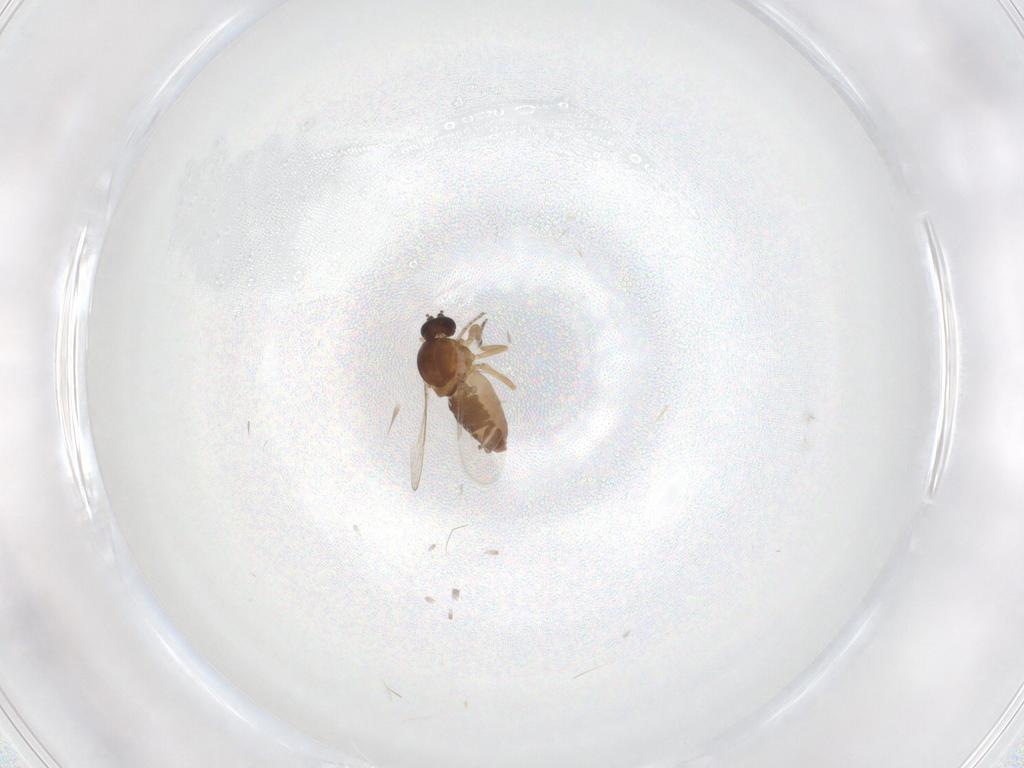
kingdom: Animalia
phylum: Arthropoda
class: Insecta
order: Diptera
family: Ceratopogonidae
